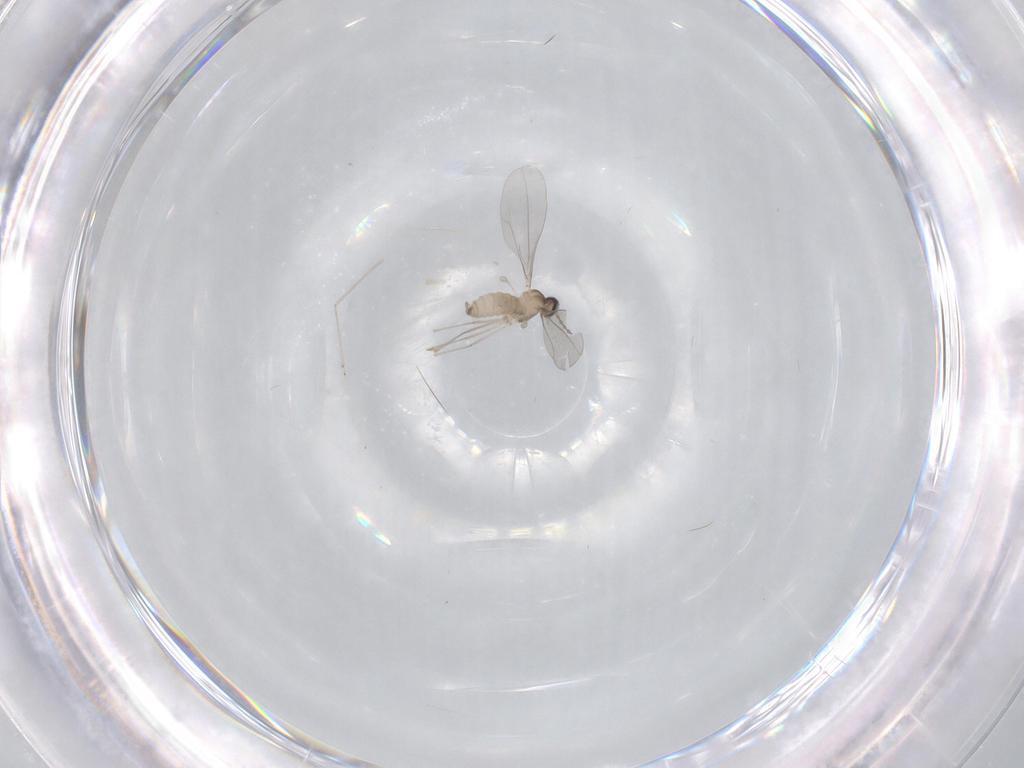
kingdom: Animalia
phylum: Arthropoda
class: Insecta
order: Diptera
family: Cecidomyiidae
